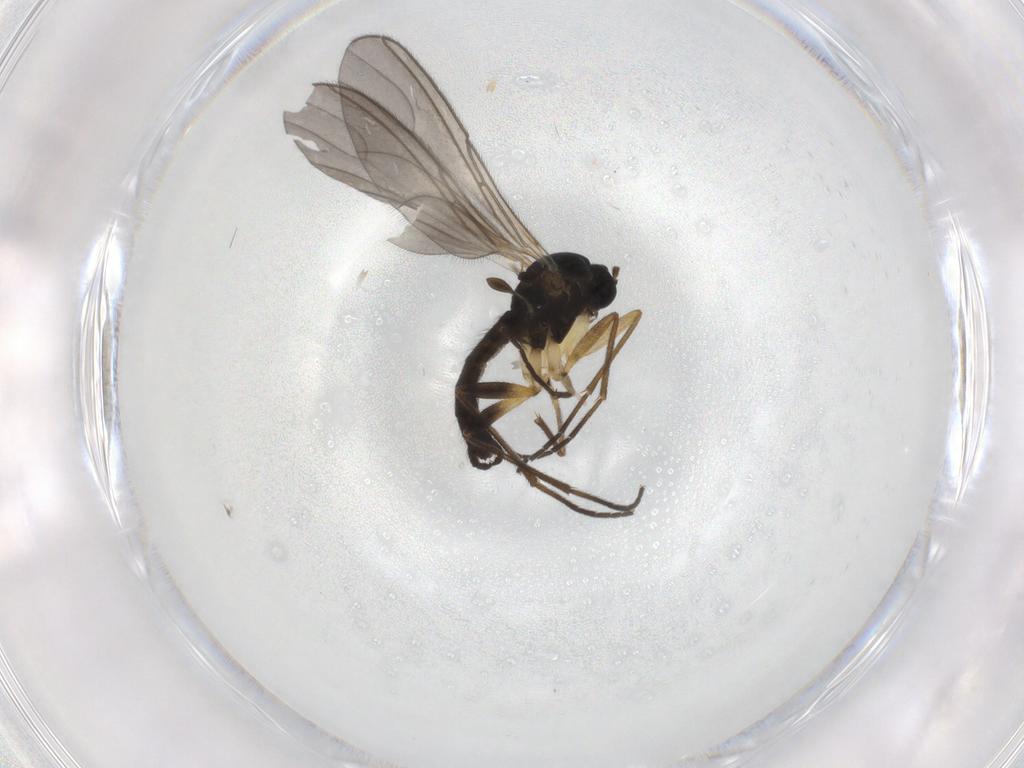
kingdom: Animalia
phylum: Arthropoda
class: Insecta
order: Diptera
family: Sciaridae
